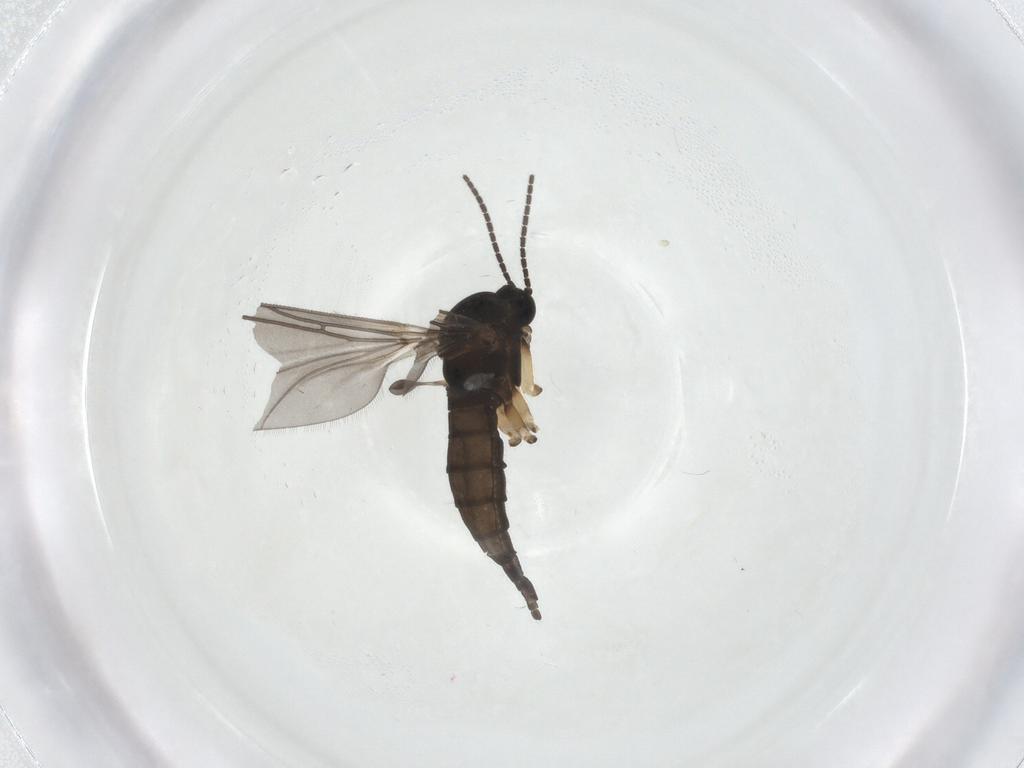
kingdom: Animalia
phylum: Arthropoda
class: Insecta
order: Diptera
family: Sciaridae
